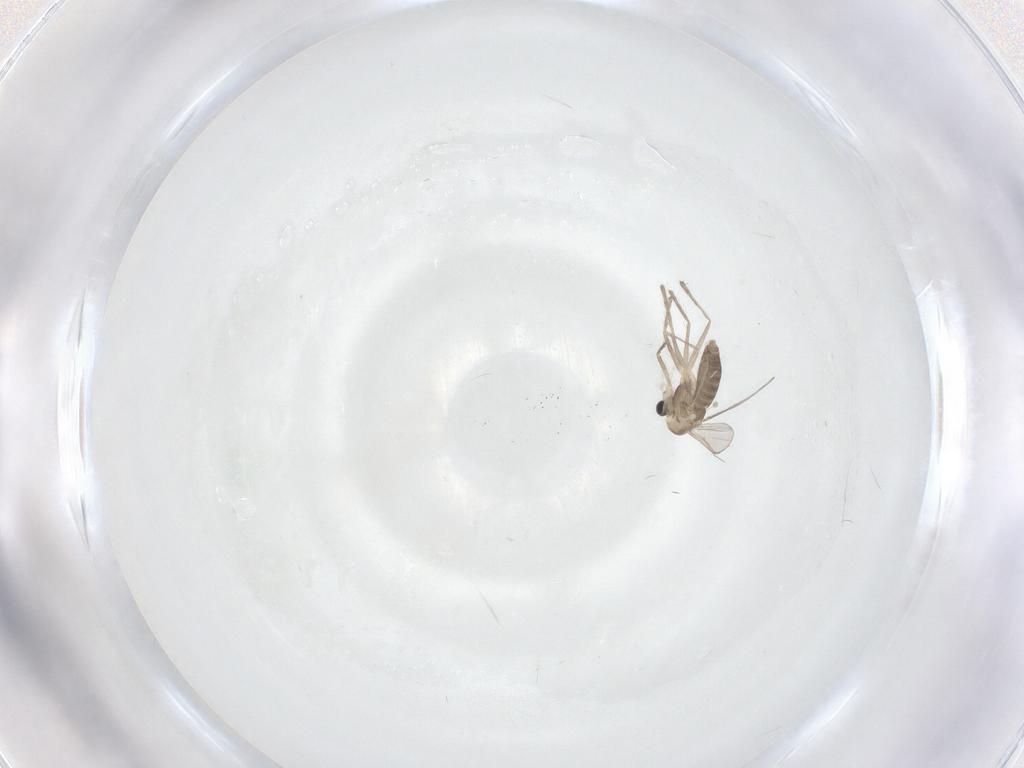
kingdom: Animalia
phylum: Arthropoda
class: Insecta
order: Diptera
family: Chironomidae
